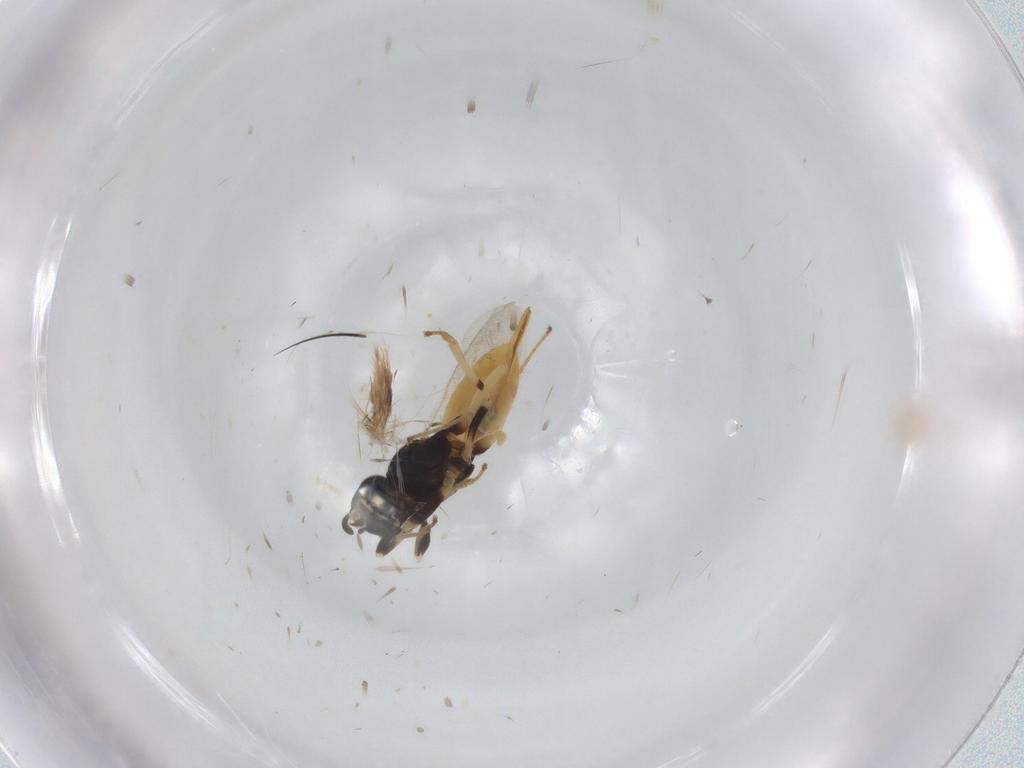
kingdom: Animalia
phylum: Arthropoda
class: Insecta
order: Hymenoptera
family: Eupelmidae
